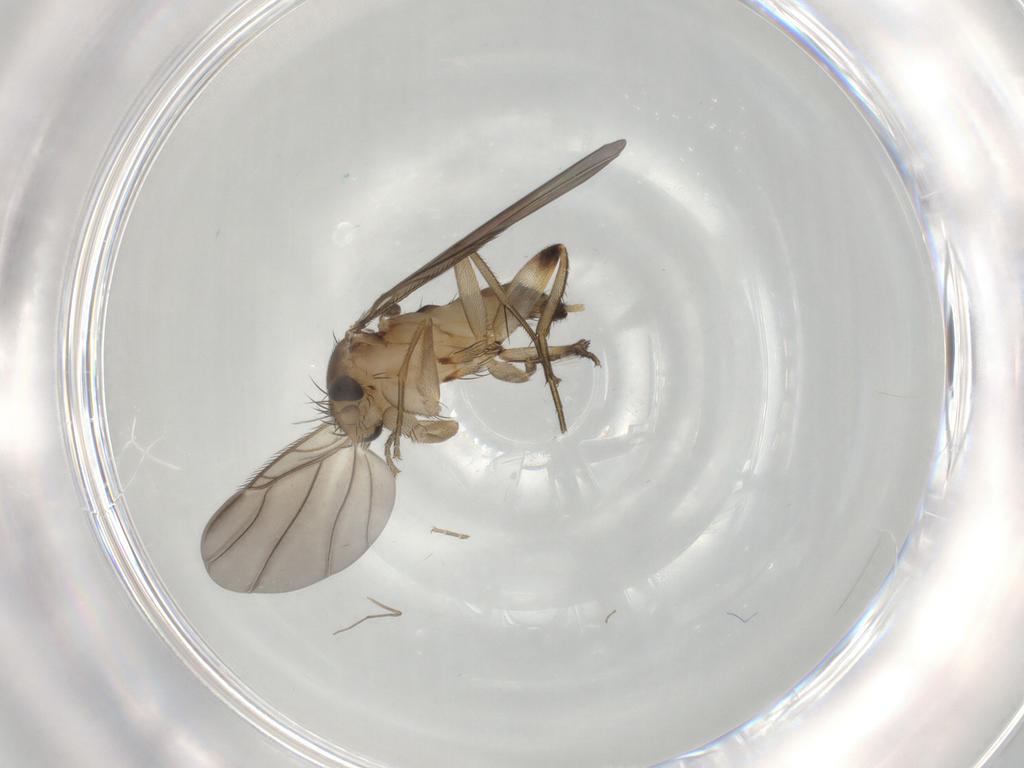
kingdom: Animalia
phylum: Arthropoda
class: Insecta
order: Diptera
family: Phoridae
